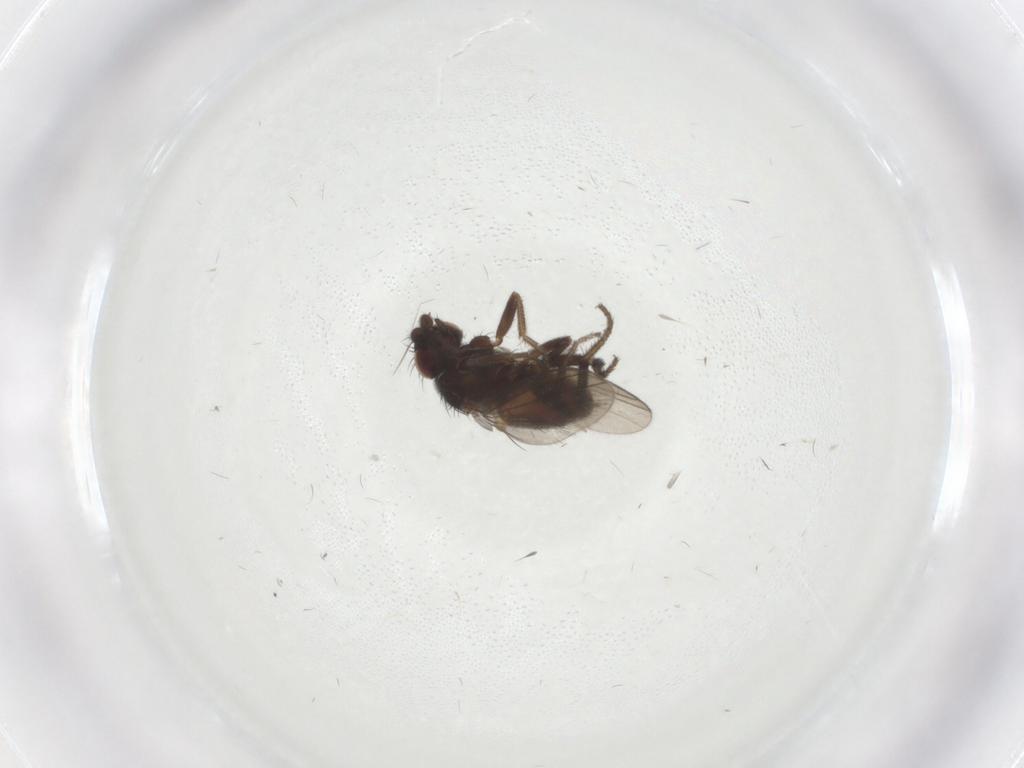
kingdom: Animalia
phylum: Arthropoda
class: Insecta
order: Diptera
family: Milichiidae
